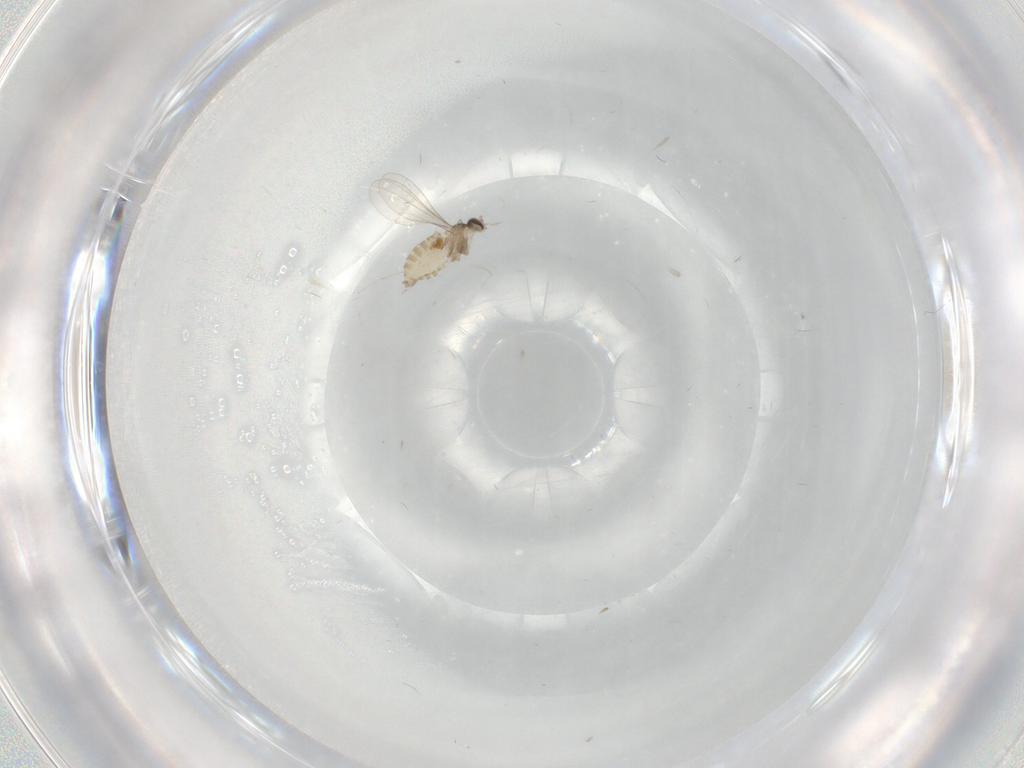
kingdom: Animalia
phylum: Arthropoda
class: Insecta
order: Diptera
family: Cecidomyiidae
